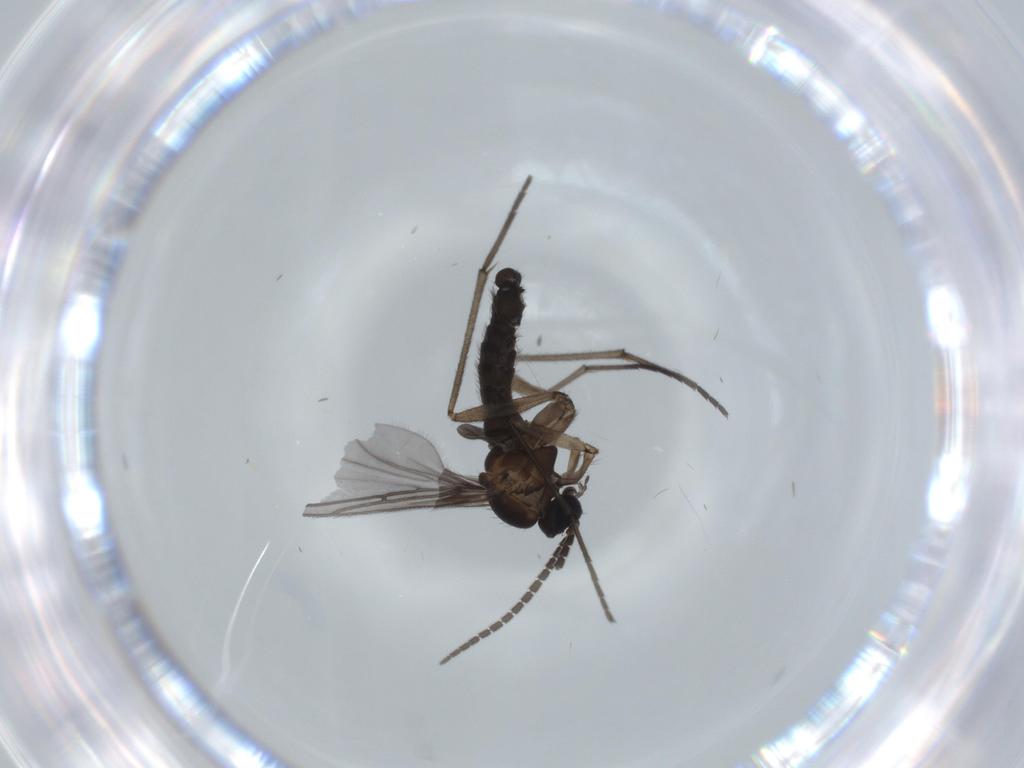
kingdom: Animalia
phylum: Arthropoda
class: Insecta
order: Diptera
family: Sciaridae
